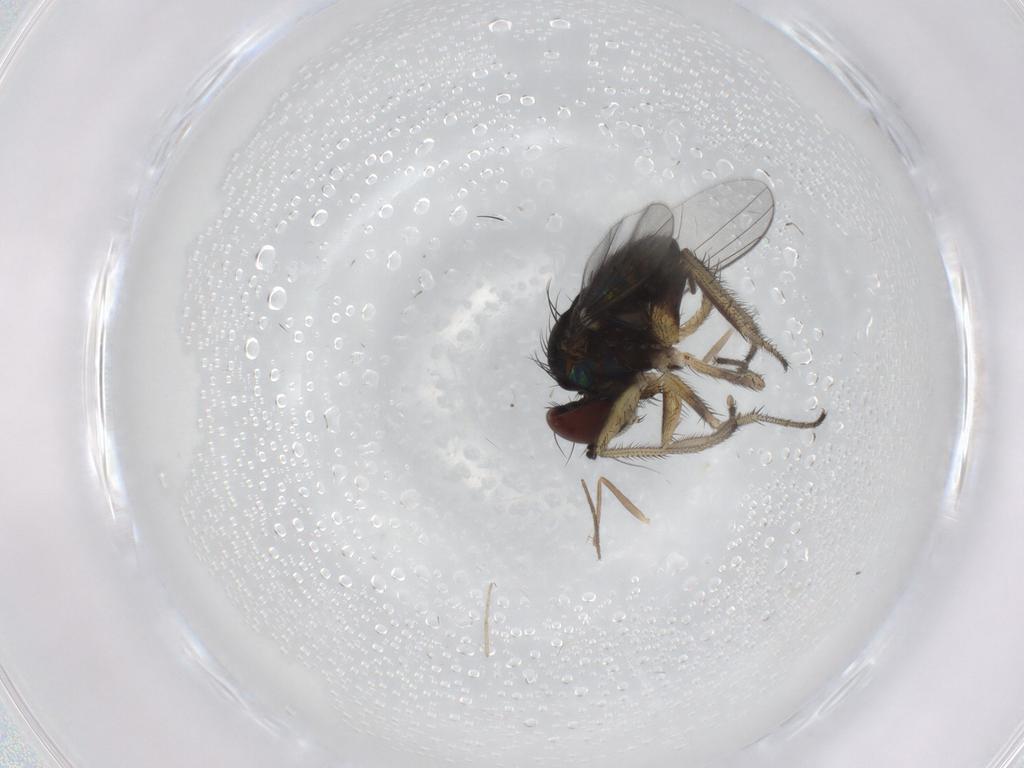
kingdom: Animalia
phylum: Arthropoda
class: Insecta
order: Diptera
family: Dolichopodidae
